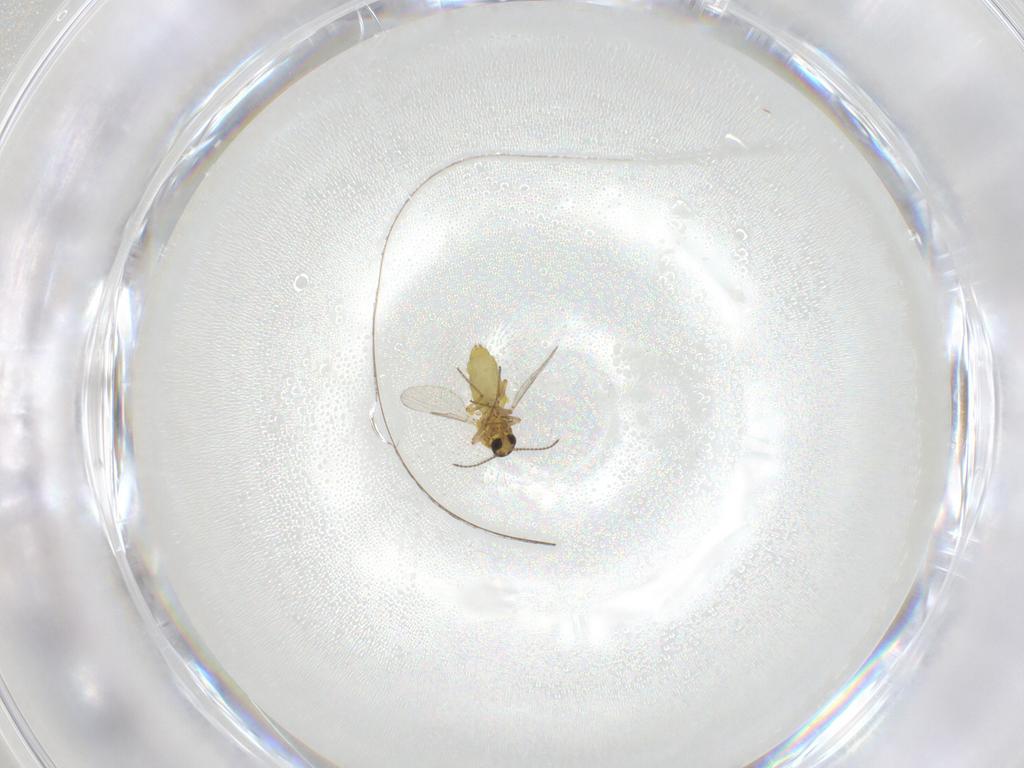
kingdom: Animalia
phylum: Arthropoda
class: Insecta
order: Diptera
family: Ceratopogonidae
